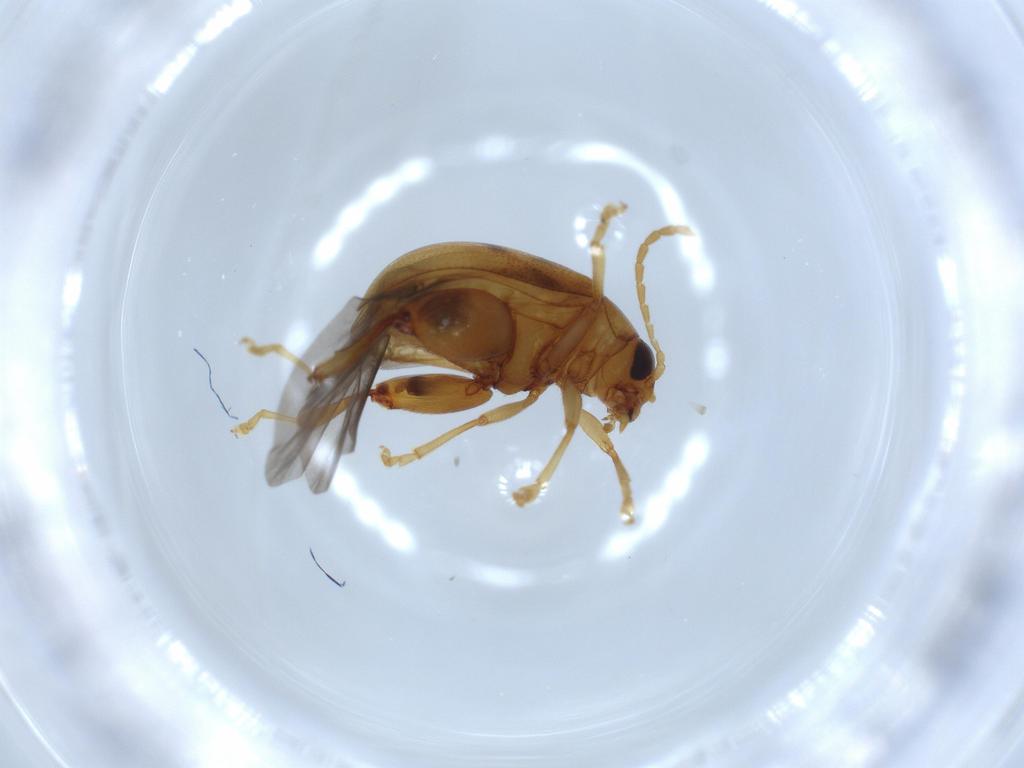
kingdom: Animalia
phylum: Arthropoda
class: Insecta
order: Coleoptera
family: Chrysomelidae
